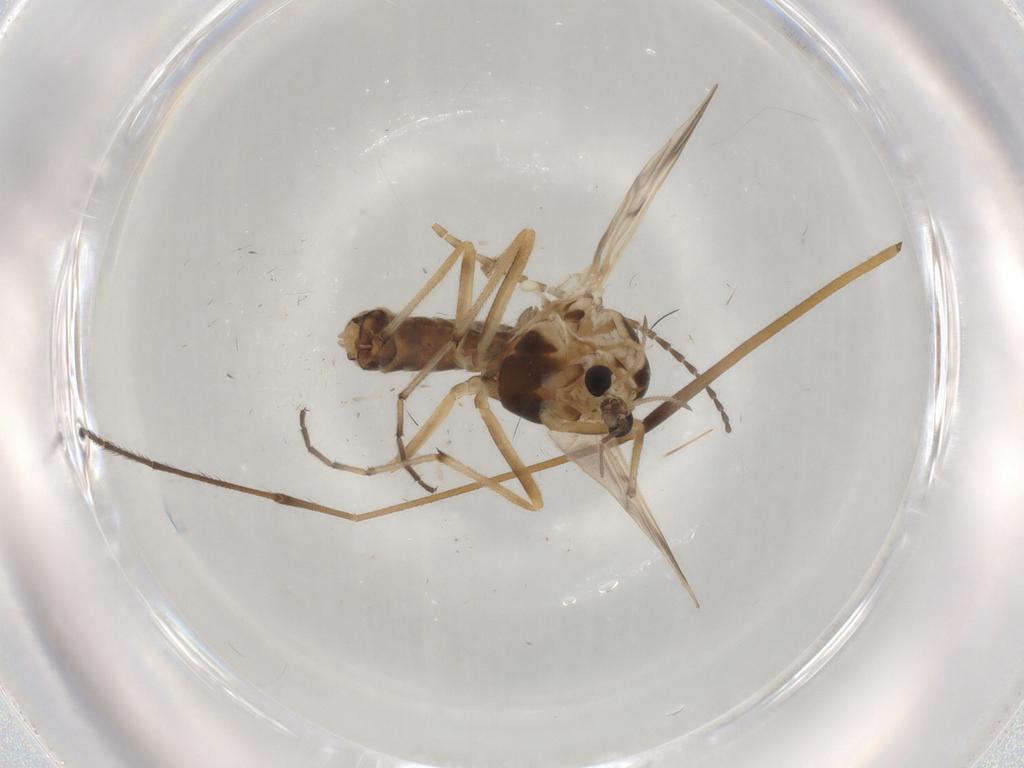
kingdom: Animalia
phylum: Arthropoda
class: Insecta
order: Diptera
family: Chironomidae
